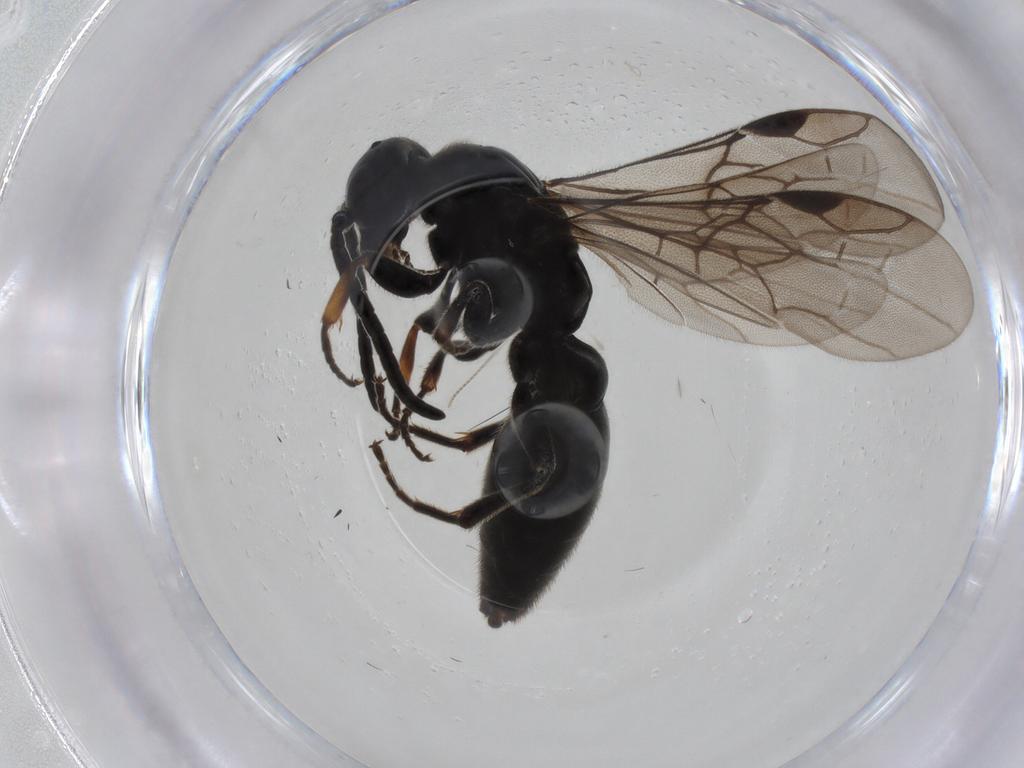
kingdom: Animalia
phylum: Arthropoda
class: Insecta
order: Hymenoptera
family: Sierolomorphidae
